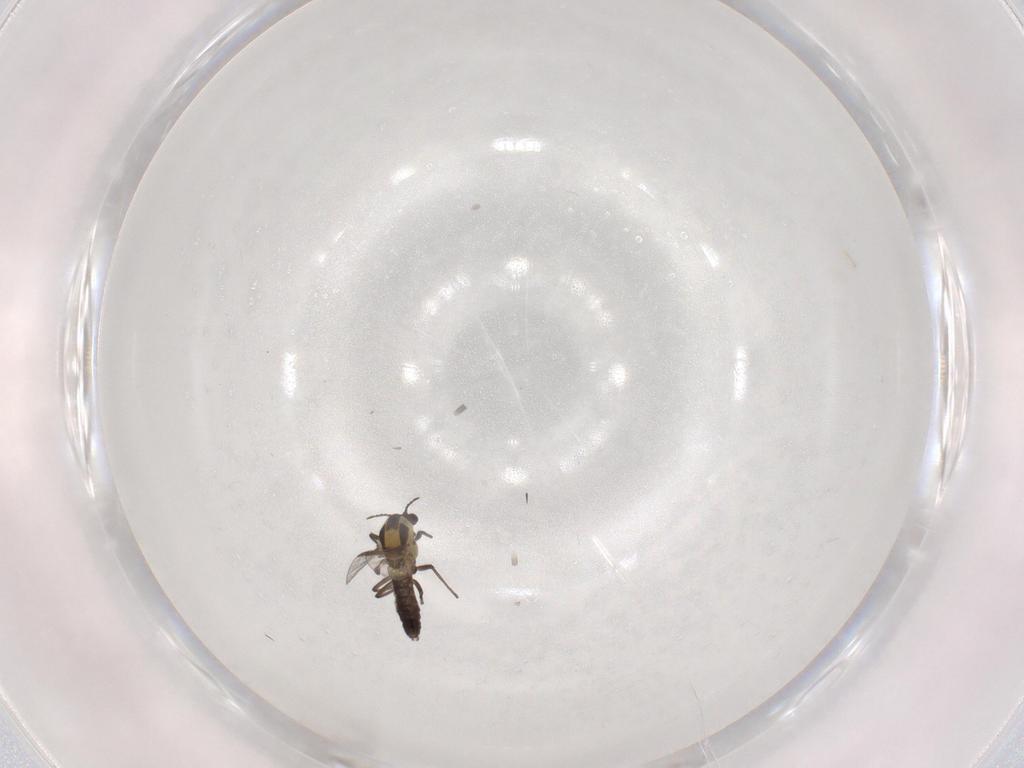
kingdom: Animalia
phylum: Arthropoda
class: Insecta
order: Diptera
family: Chironomidae
